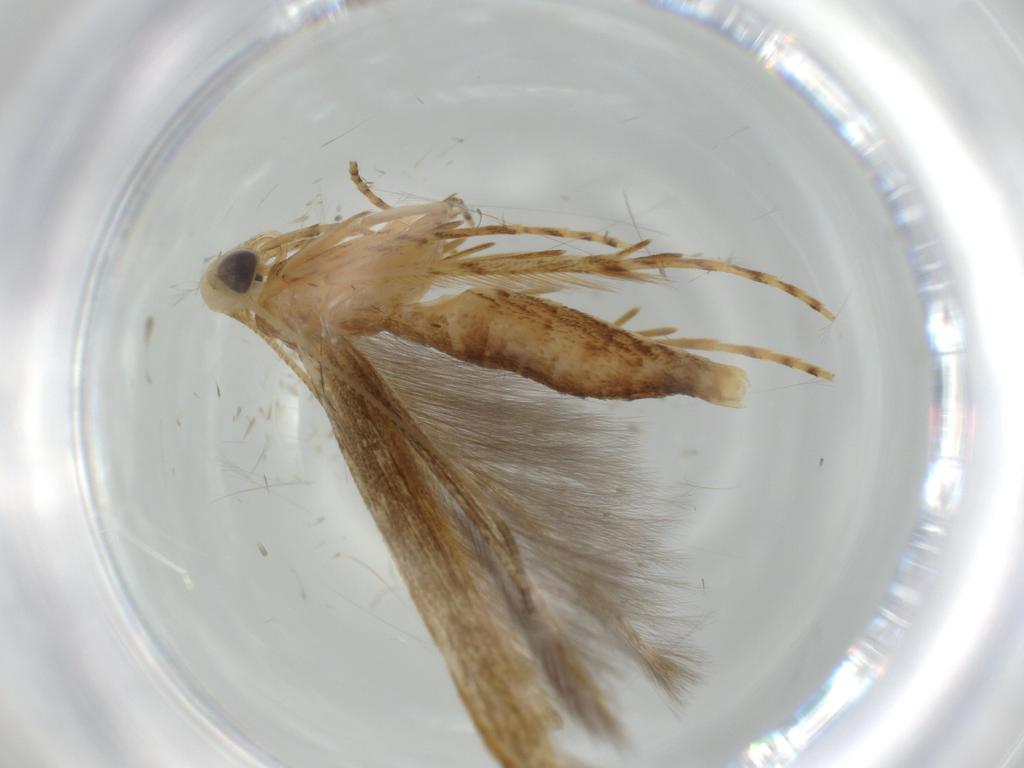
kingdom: Animalia
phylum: Arthropoda
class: Insecta
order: Lepidoptera
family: Batrachedridae
